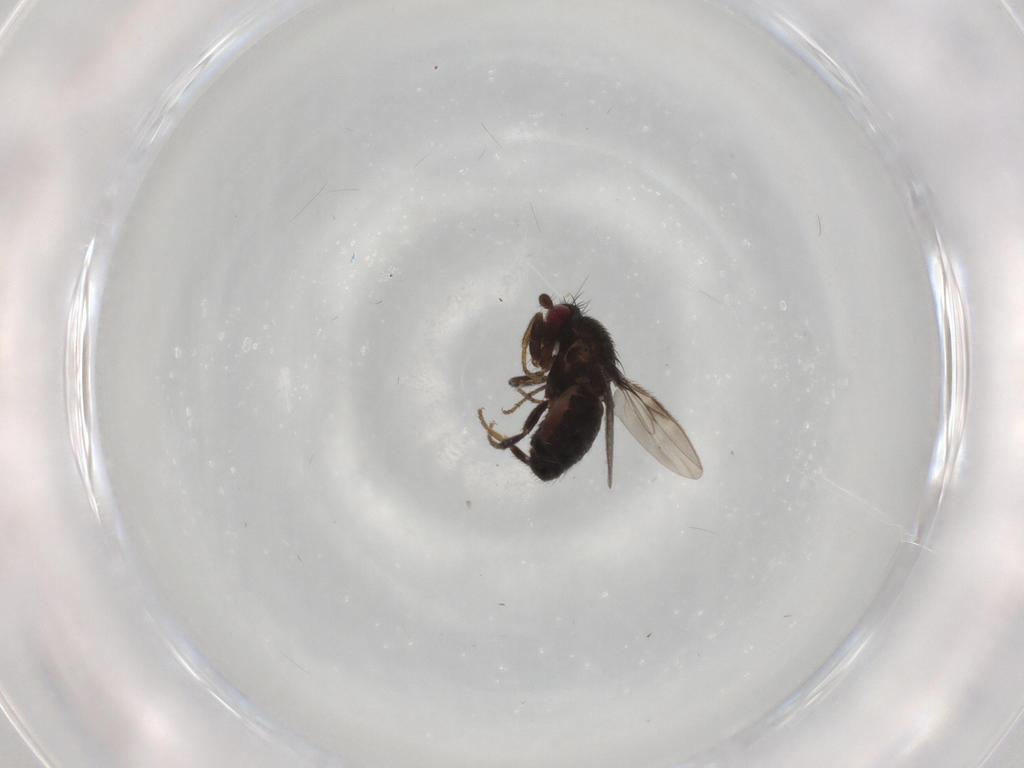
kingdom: Animalia
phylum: Arthropoda
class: Insecta
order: Diptera
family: Sphaeroceridae
